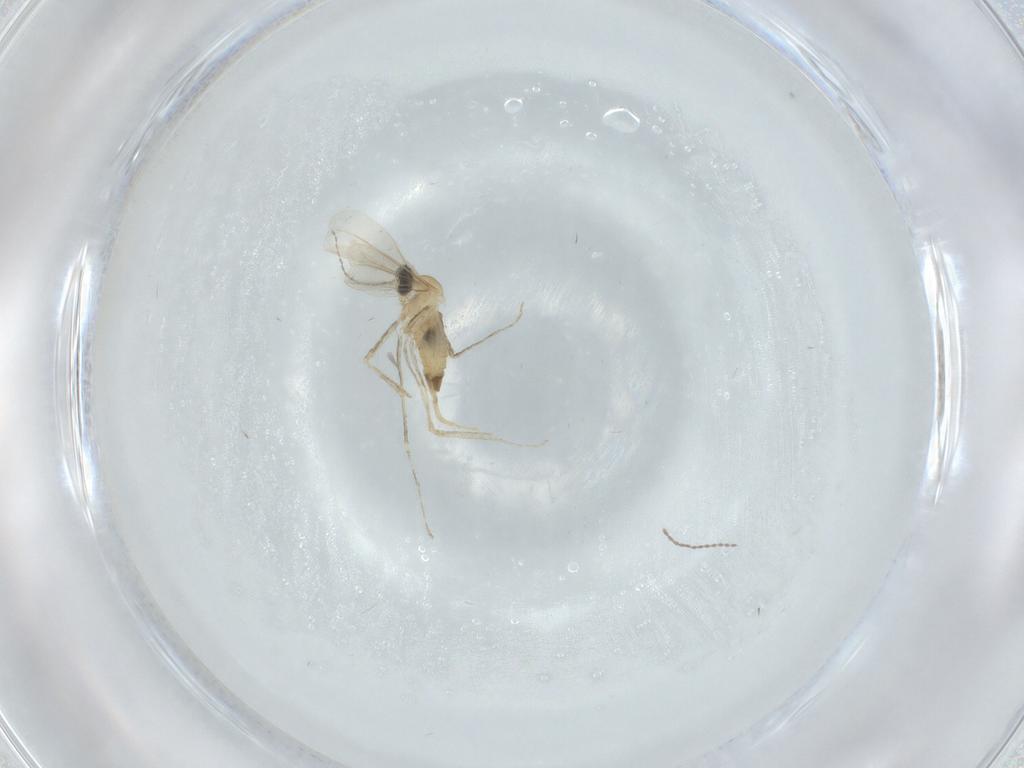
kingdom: Animalia
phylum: Arthropoda
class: Insecta
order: Diptera
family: Cecidomyiidae
